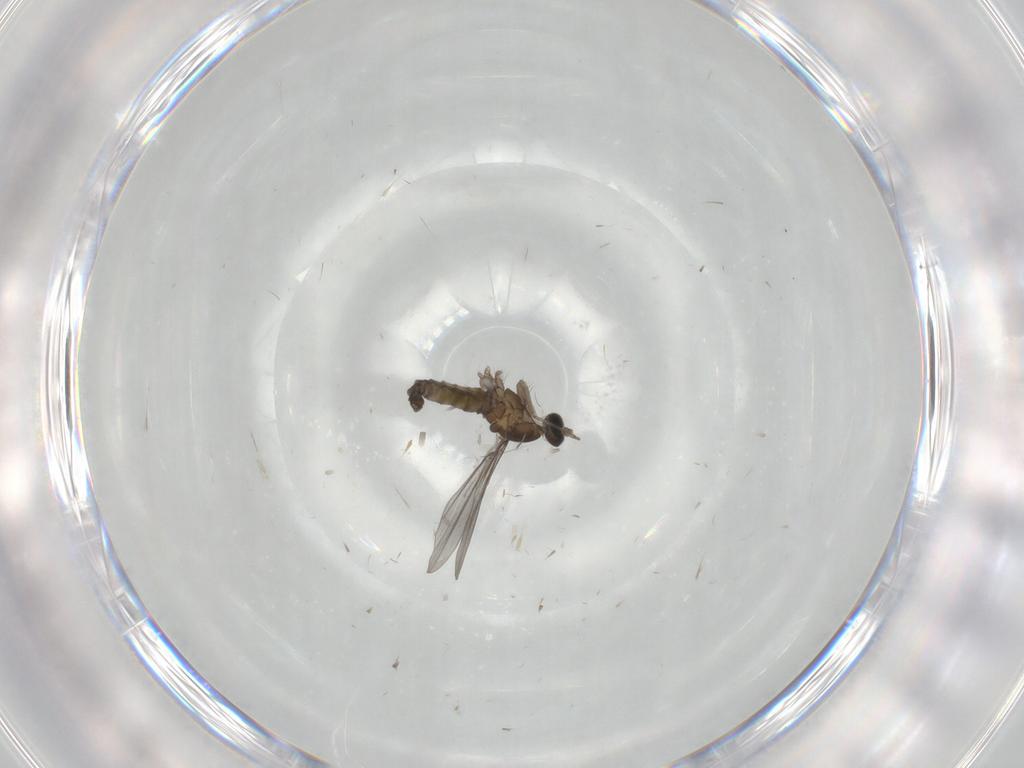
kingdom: Animalia
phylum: Arthropoda
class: Insecta
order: Diptera
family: Cecidomyiidae
